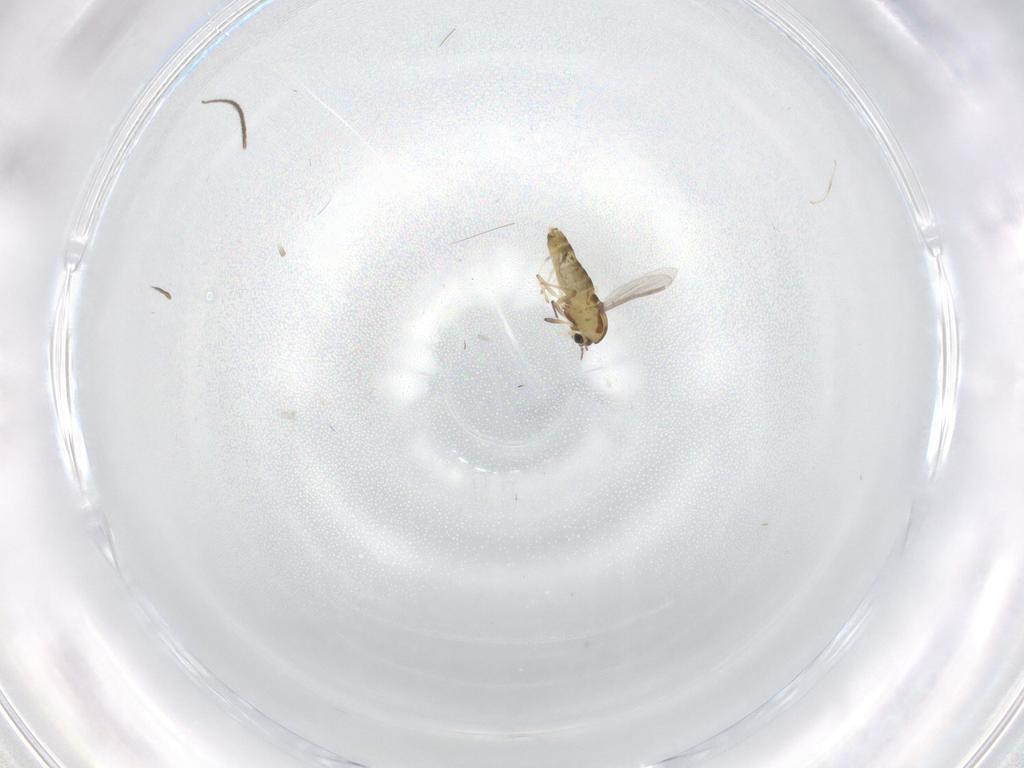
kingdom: Animalia
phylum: Arthropoda
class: Insecta
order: Diptera
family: Chironomidae
